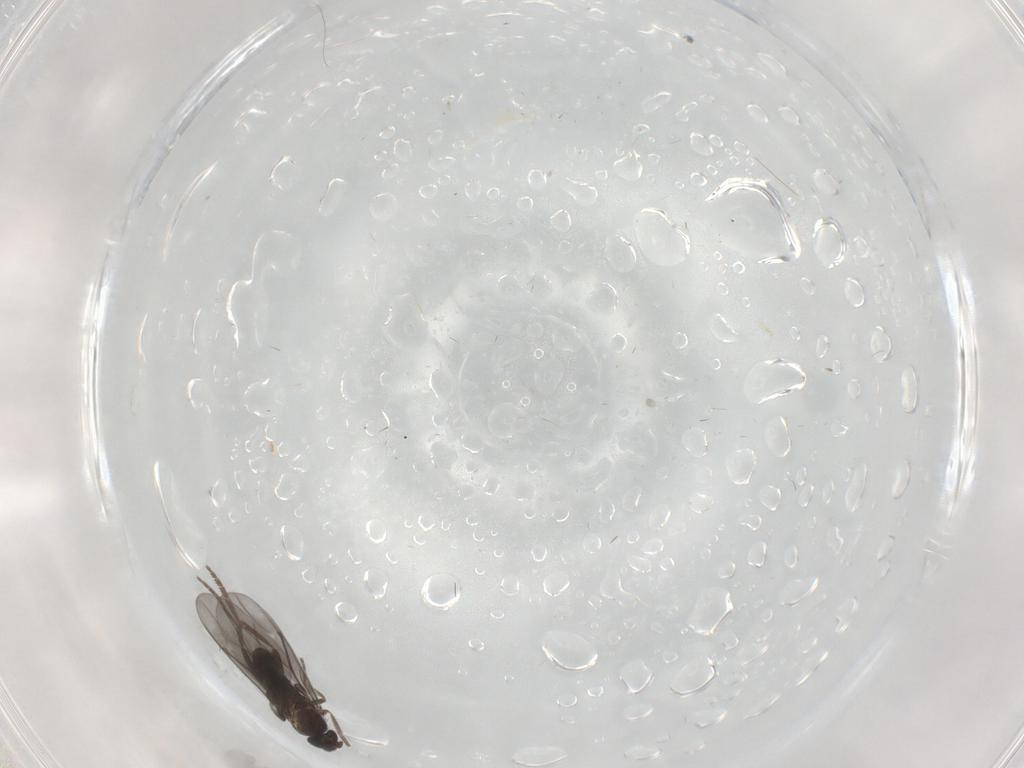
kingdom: Animalia
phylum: Arthropoda
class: Insecta
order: Diptera
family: Phoridae
